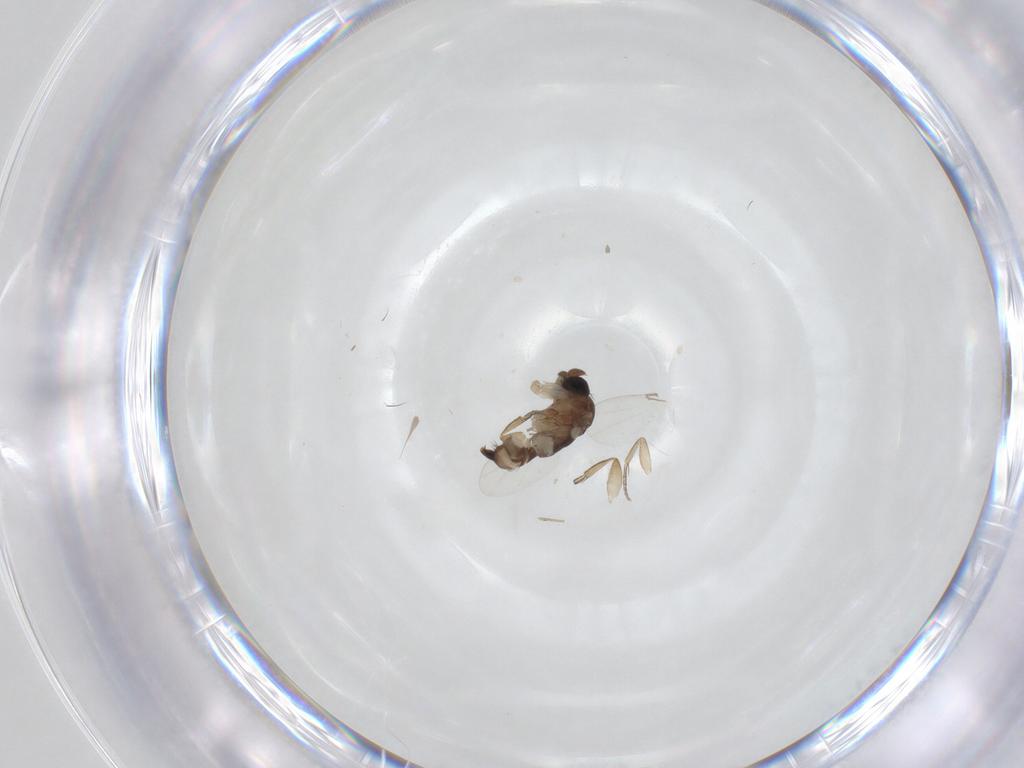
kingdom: Animalia
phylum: Arthropoda
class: Insecta
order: Diptera
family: Phoridae
